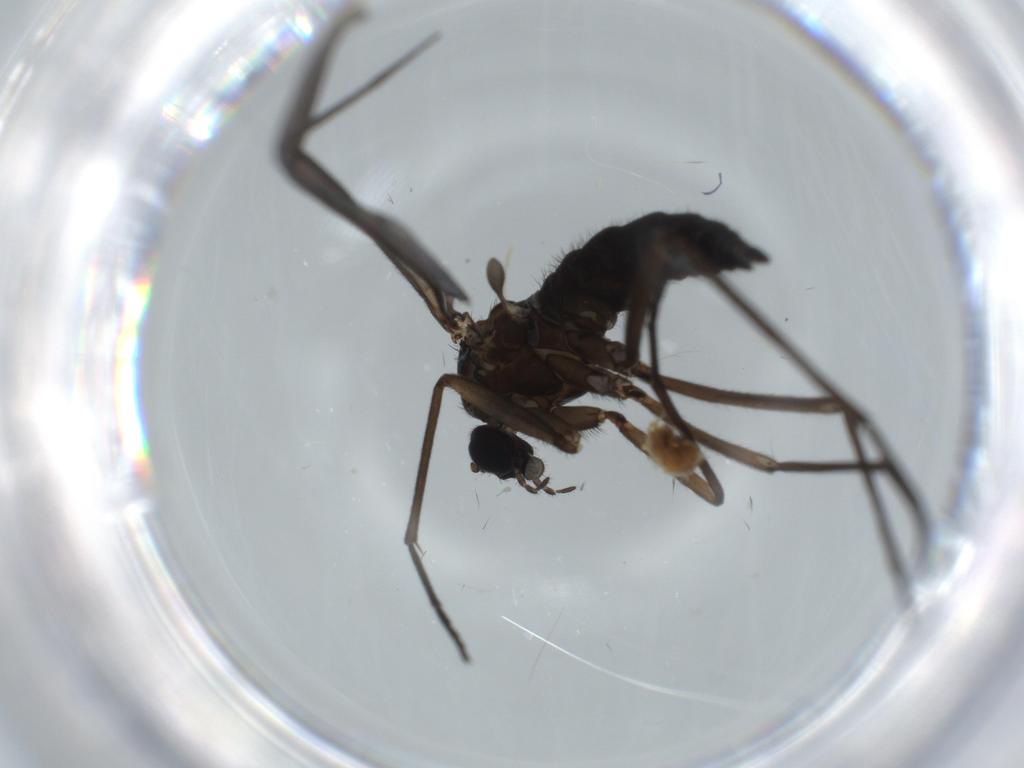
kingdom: Animalia
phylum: Arthropoda
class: Insecta
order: Diptera
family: Sciaridae
